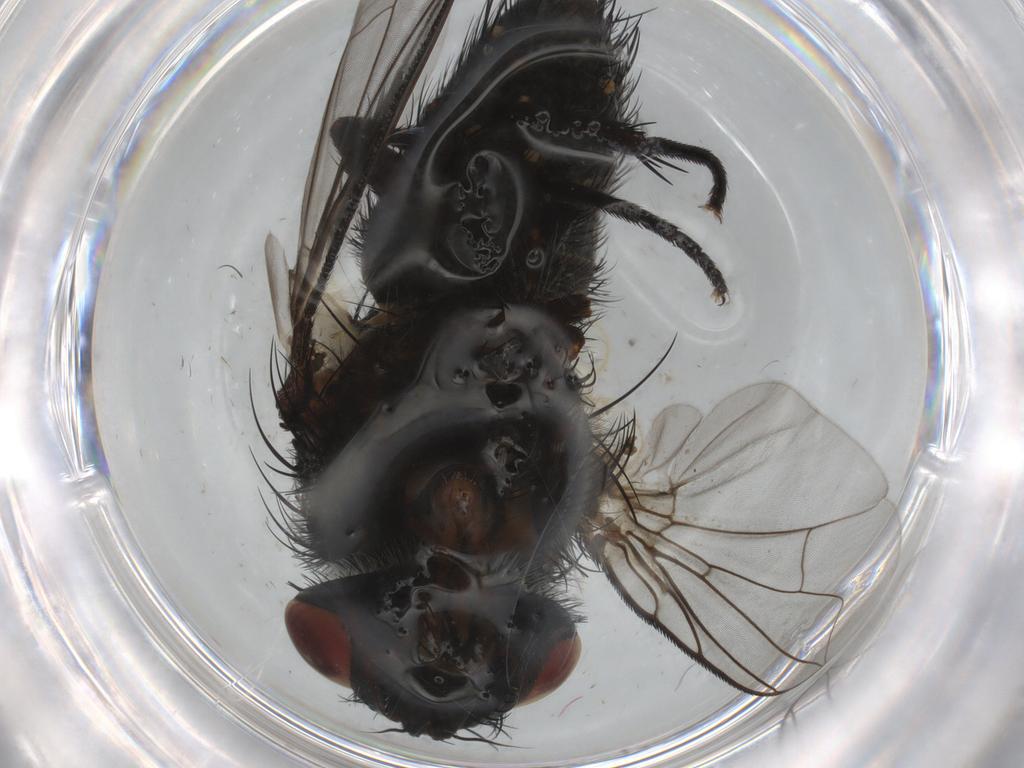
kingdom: Animalia
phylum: Arthropoda
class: Insecta
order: Diptera
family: Tachinidae
